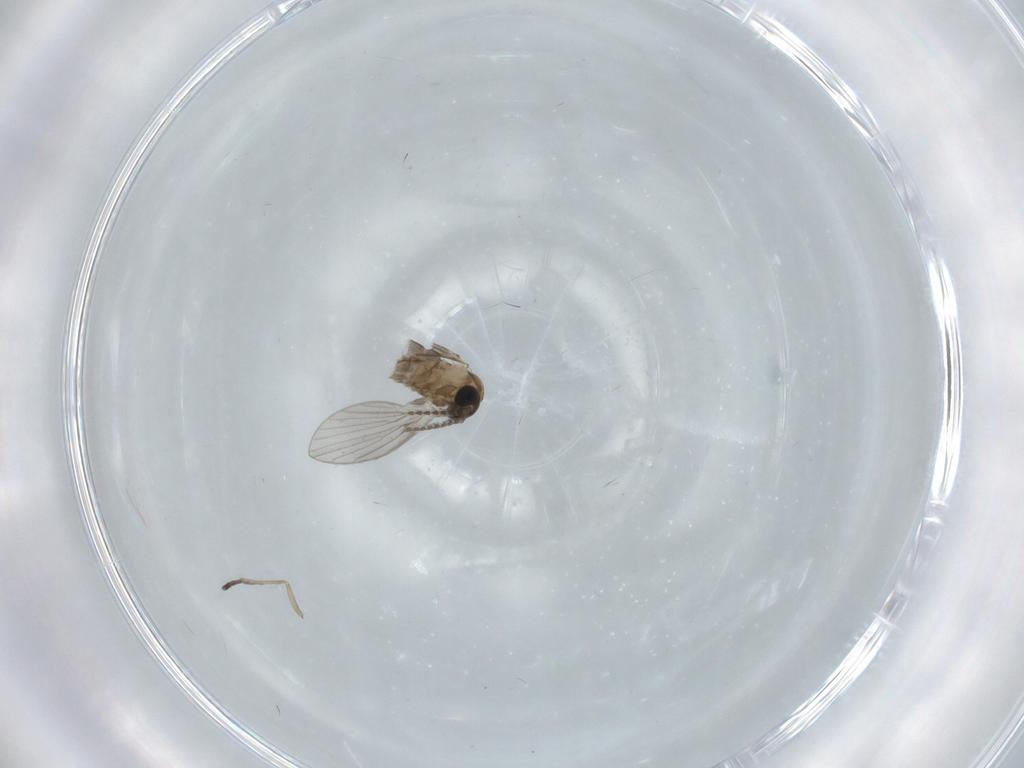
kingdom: Animalia
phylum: Arthropoda
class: Insecta
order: Diptera
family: Psychodidae
